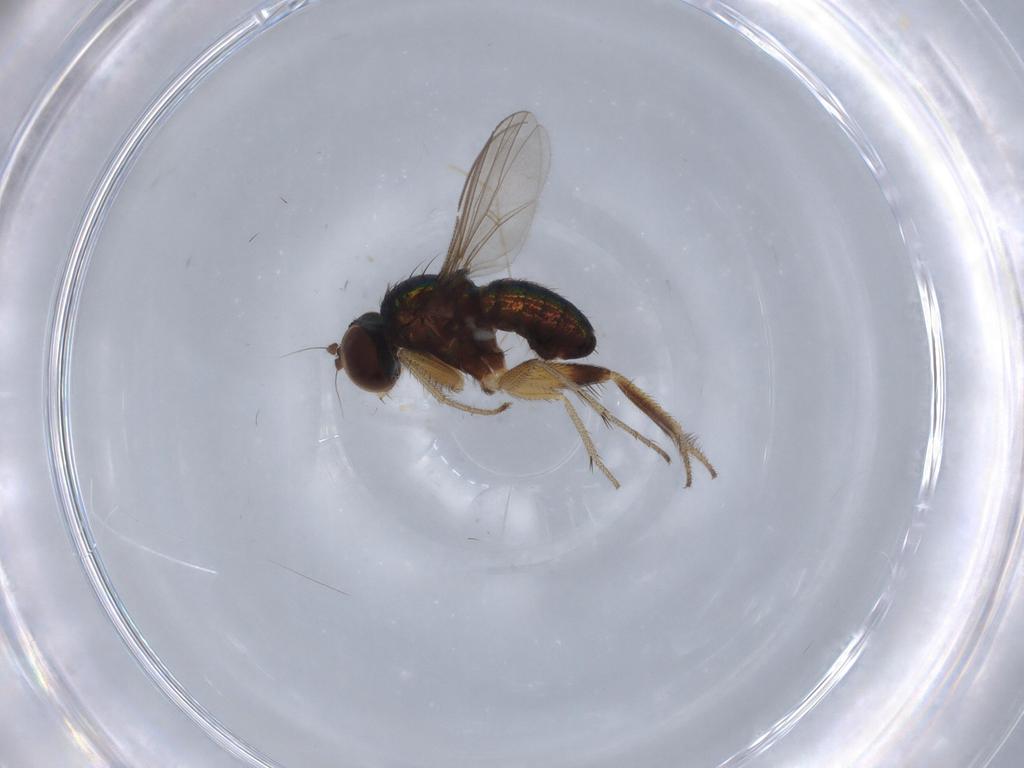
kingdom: Animalia
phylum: Arthropoda
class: Insecta
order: Diptera
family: Cecidomyiidae
